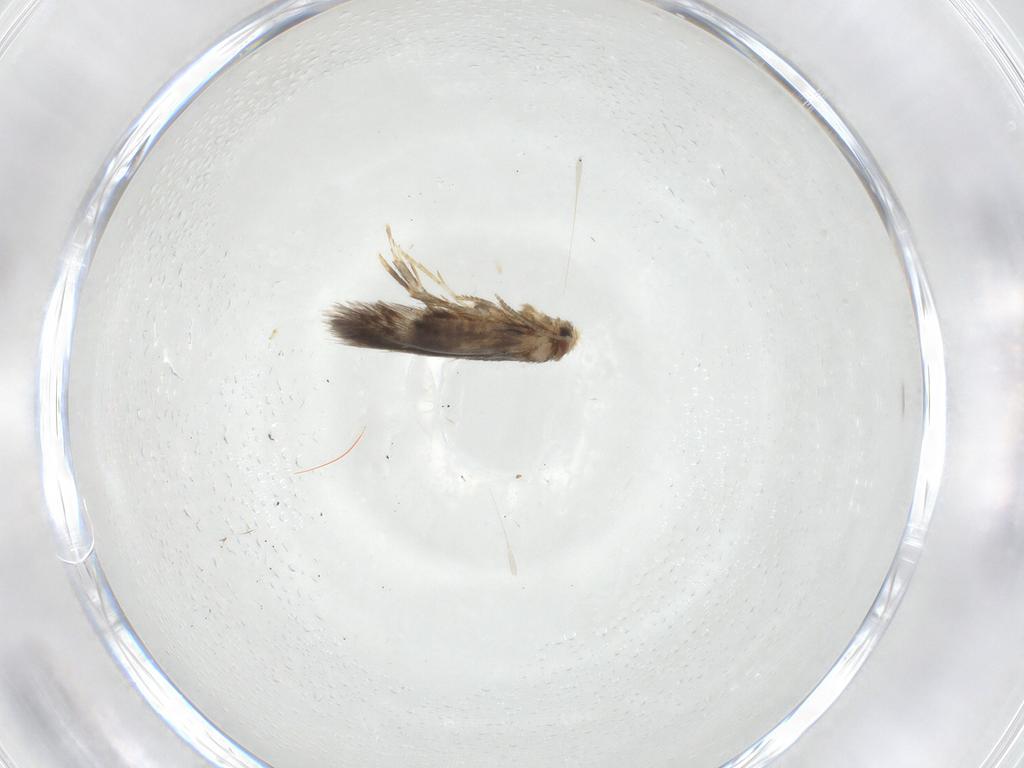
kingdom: Animalia
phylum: Arthropoda
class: Insecta
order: Lepidoptera
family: Nepticulidae
